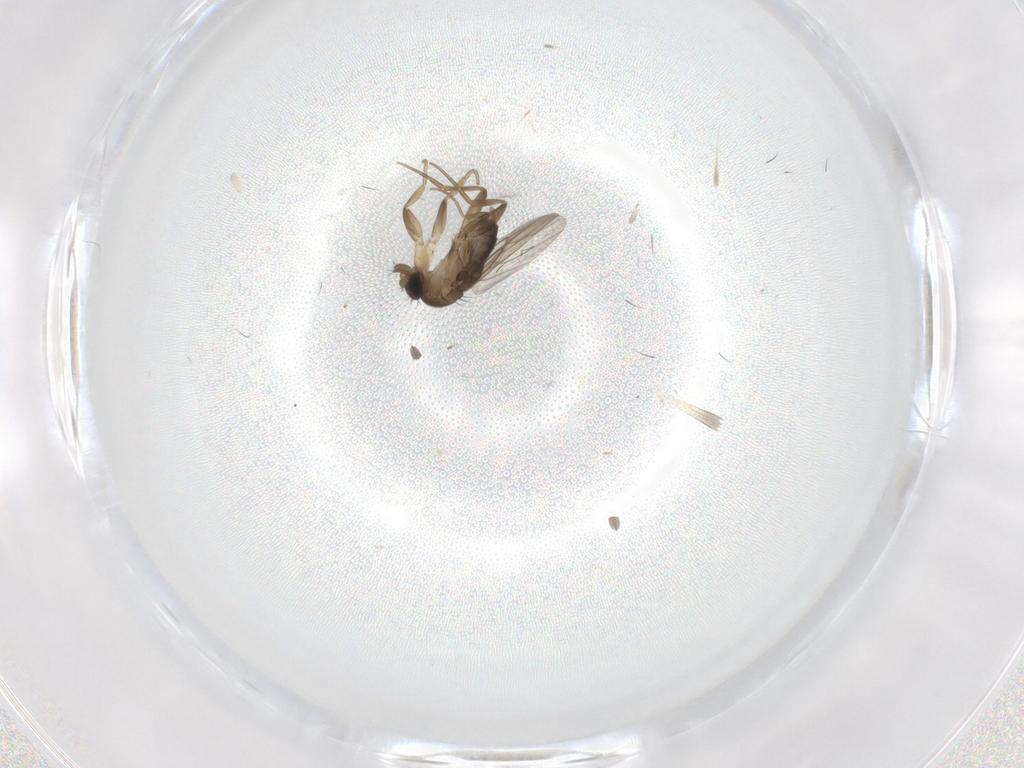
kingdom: Animalia
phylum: Arthropoda
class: Insecta
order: Diptera
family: Phoridae
